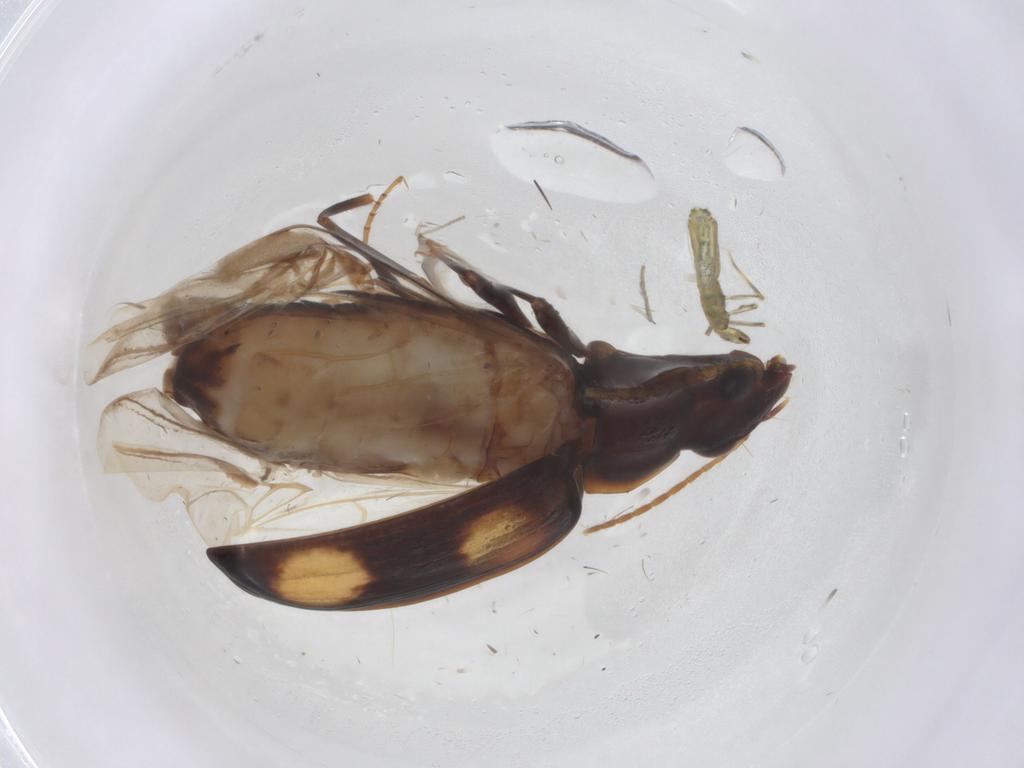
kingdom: Animalia
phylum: Arthropoda
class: Insecta
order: Coleoptera
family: Carabidae
